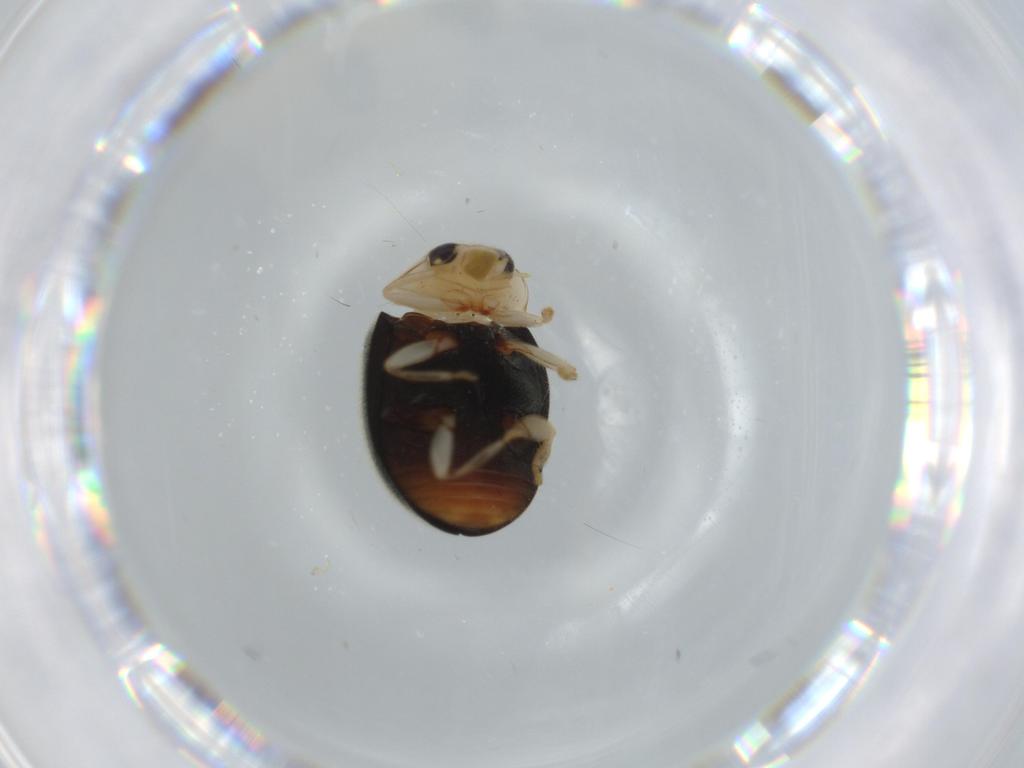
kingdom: Animalia
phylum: Arthropoda
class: Insecta
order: Coleoptera
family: Coccinellidae
